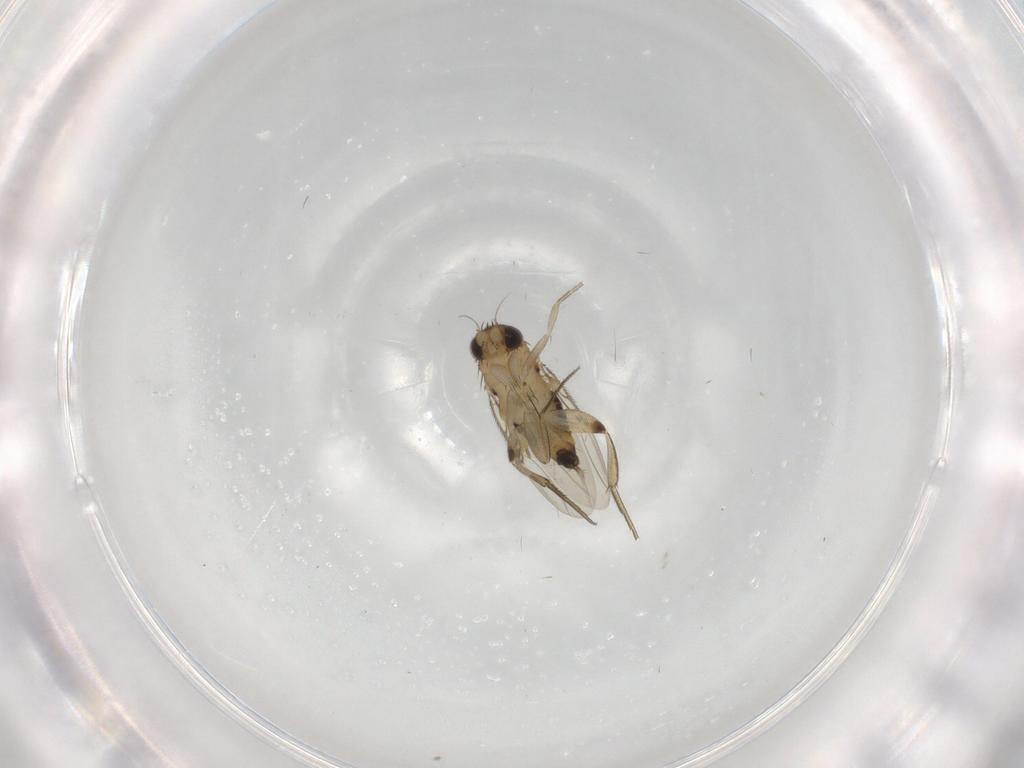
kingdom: Animalia
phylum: Arthropoda
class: Insecta
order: Diptera
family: Phoridae
